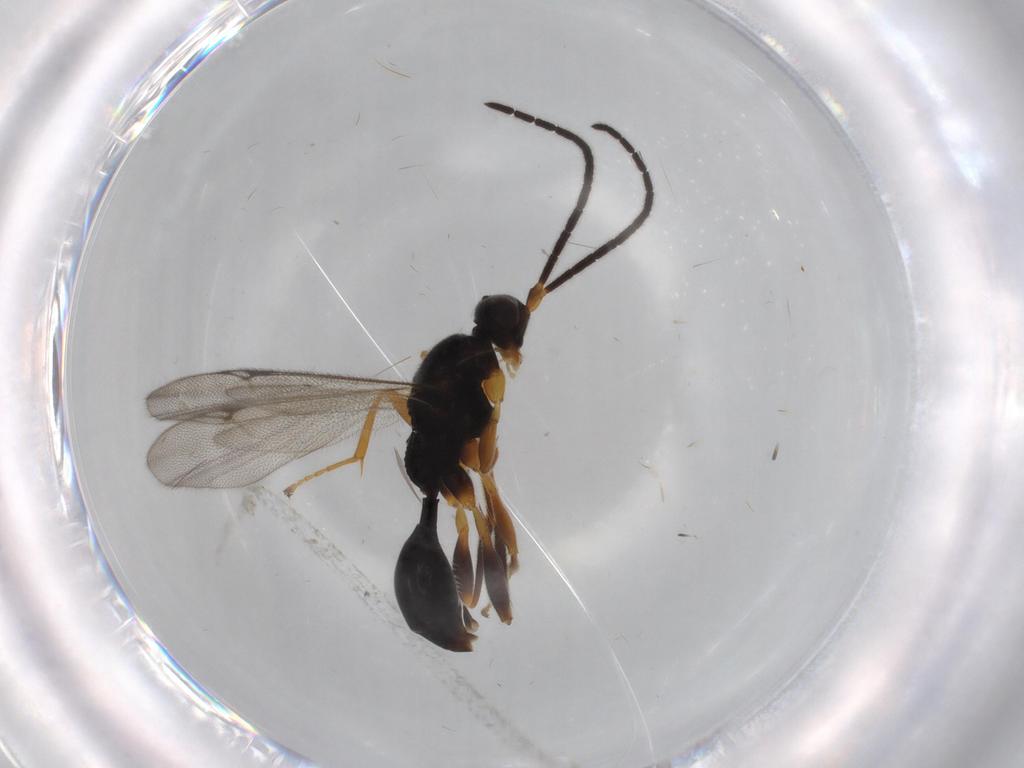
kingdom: Animalia
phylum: Arthropoda
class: Insecta
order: Hymenoptera
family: Proctotrupidae
